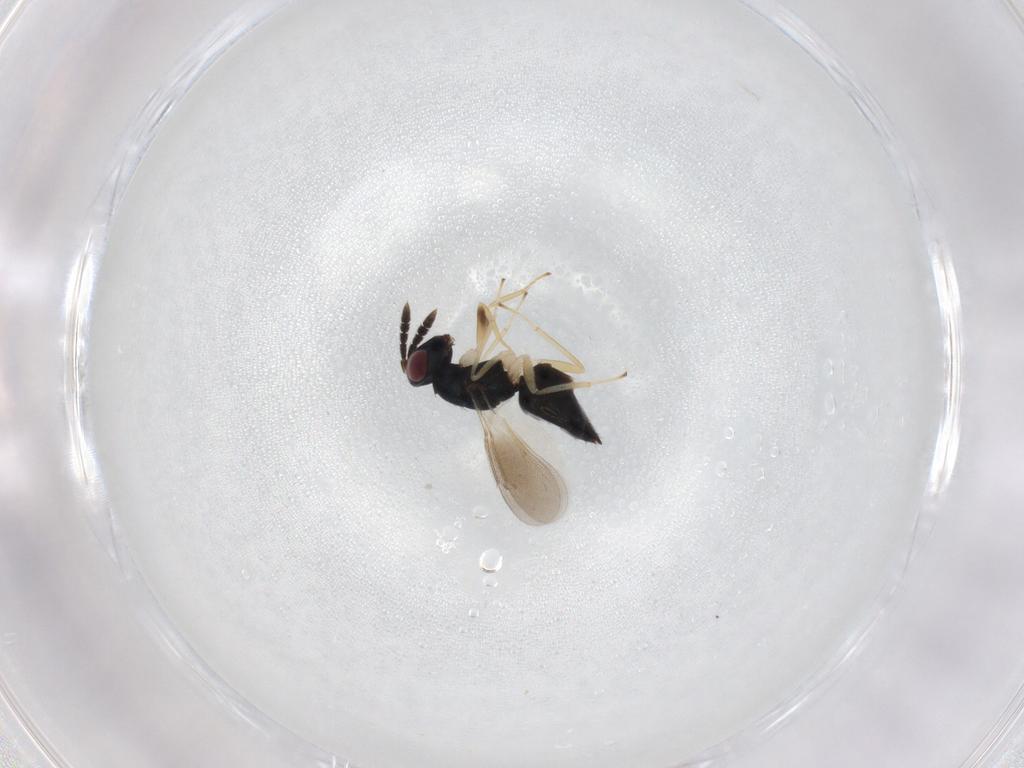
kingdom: Animalia
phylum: Arthropoda
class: Insecta
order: Hymenoptera
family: Eulophidae
